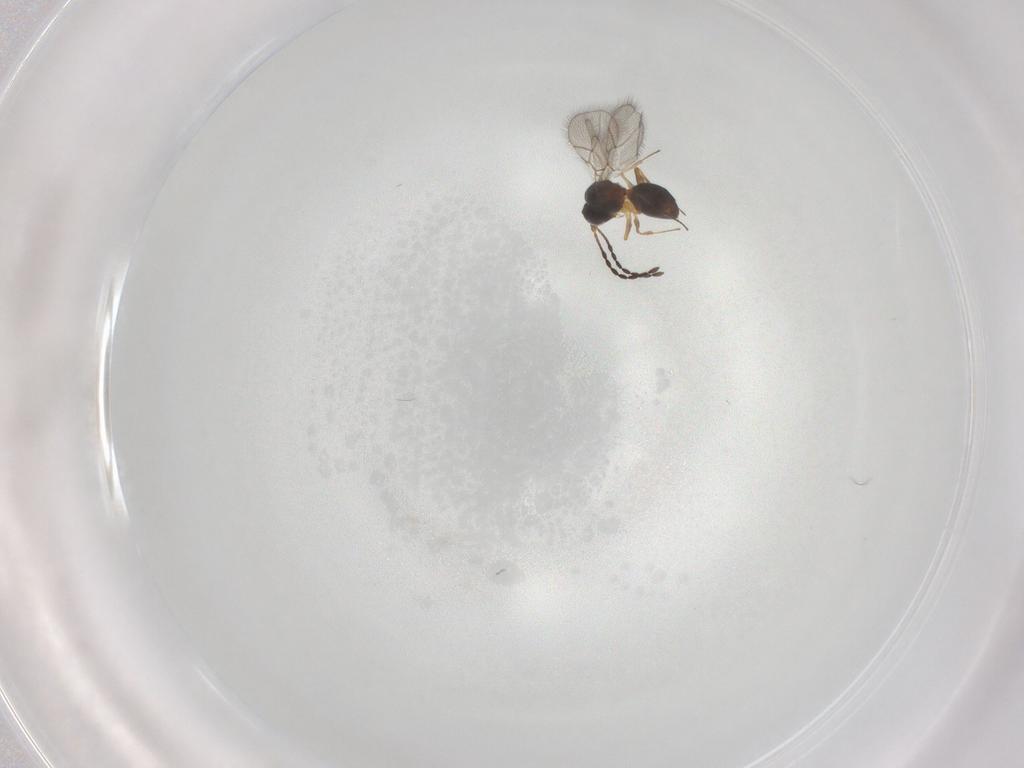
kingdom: Animalia
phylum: Arthropoda
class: Insecta
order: Hymenoptera
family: Figitidae
